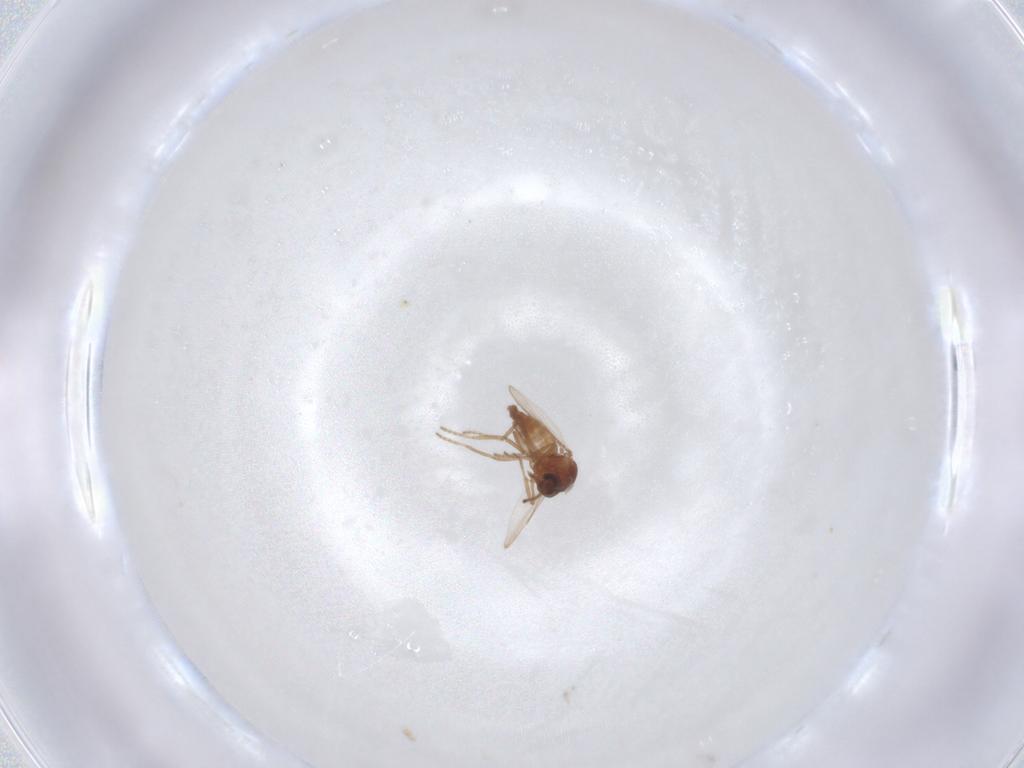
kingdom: Animalia
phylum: Arthropoda
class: Insecta
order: Diptera
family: Ceratopogonidae
